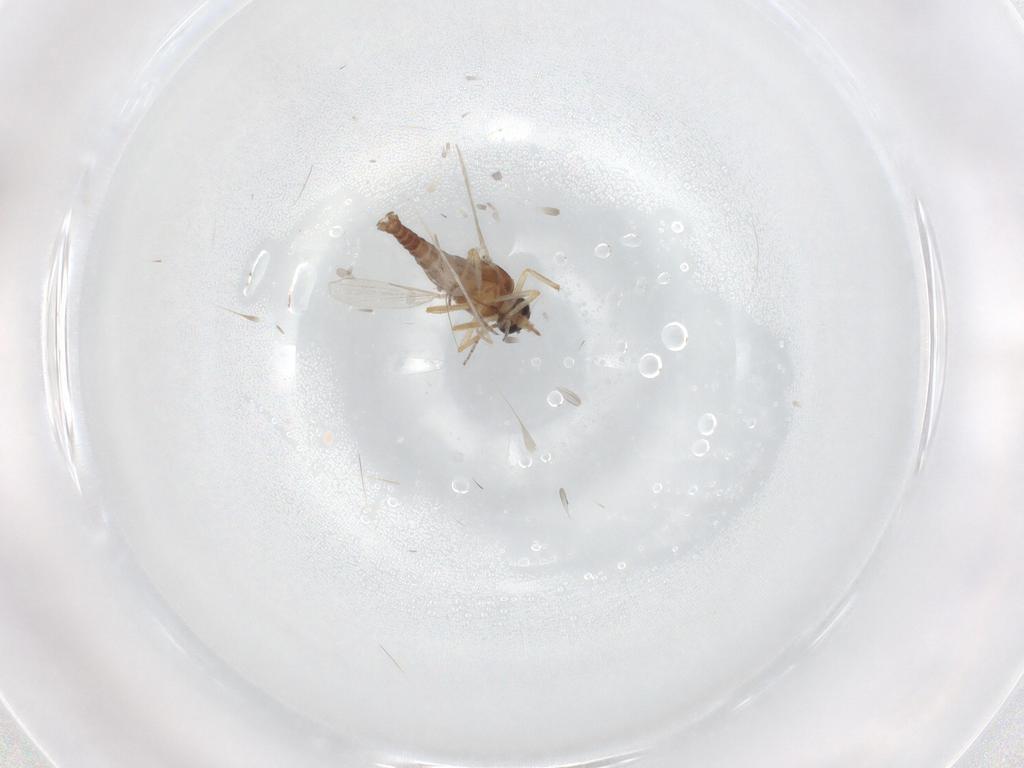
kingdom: Animalia
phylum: Arthropoda
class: Insecta
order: Diptera
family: Ceratopogonidae
